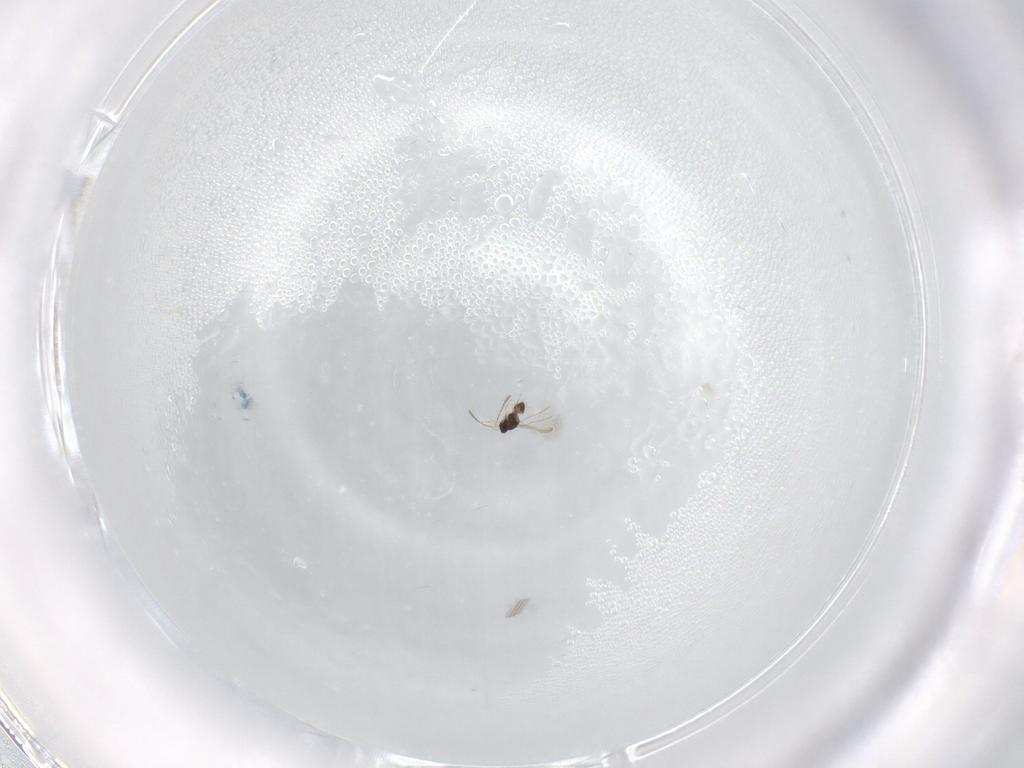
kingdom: Animalia
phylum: Arthropoda
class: Insecta
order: Hymenoptera
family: Mymaridae
